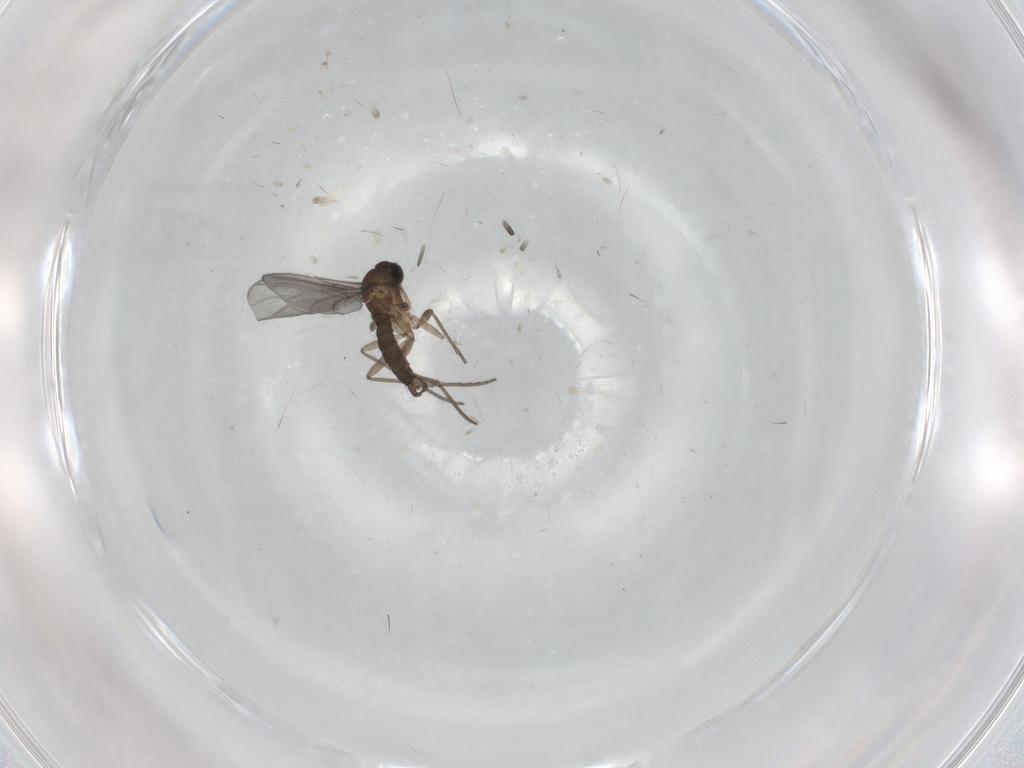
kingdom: Animalia
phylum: Arthropoda
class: Insecta
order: Diptera
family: Sciaridae
